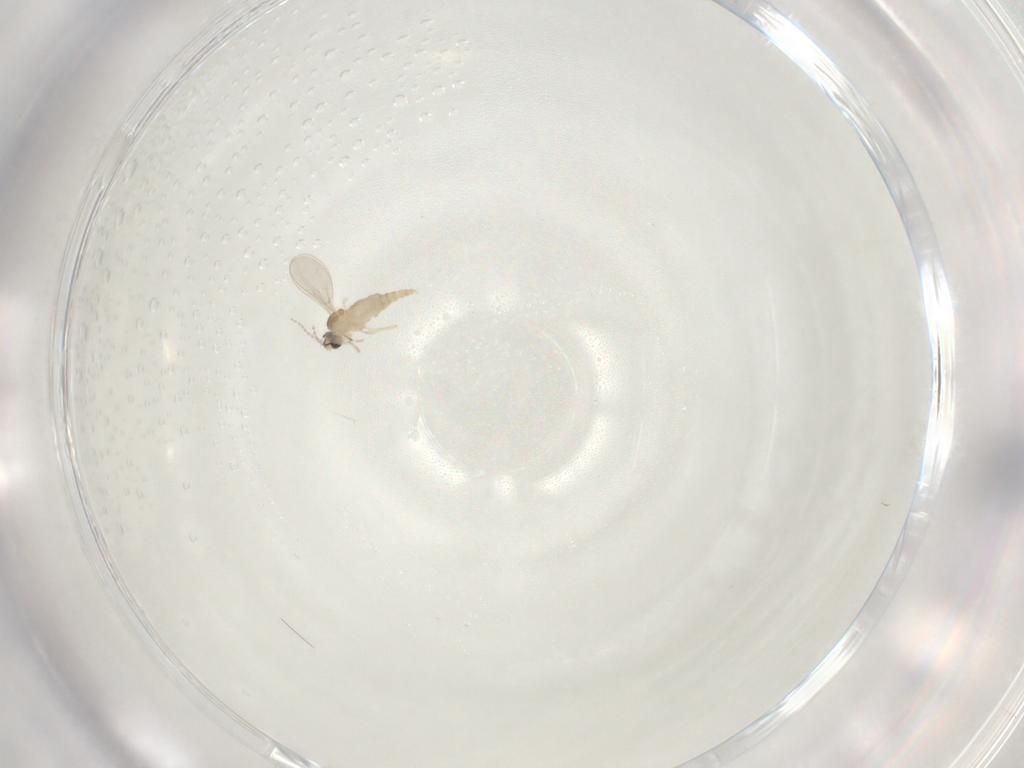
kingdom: Animalia
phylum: Arthropoda
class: Insecta
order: Diptera
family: Cecidomyiidae
